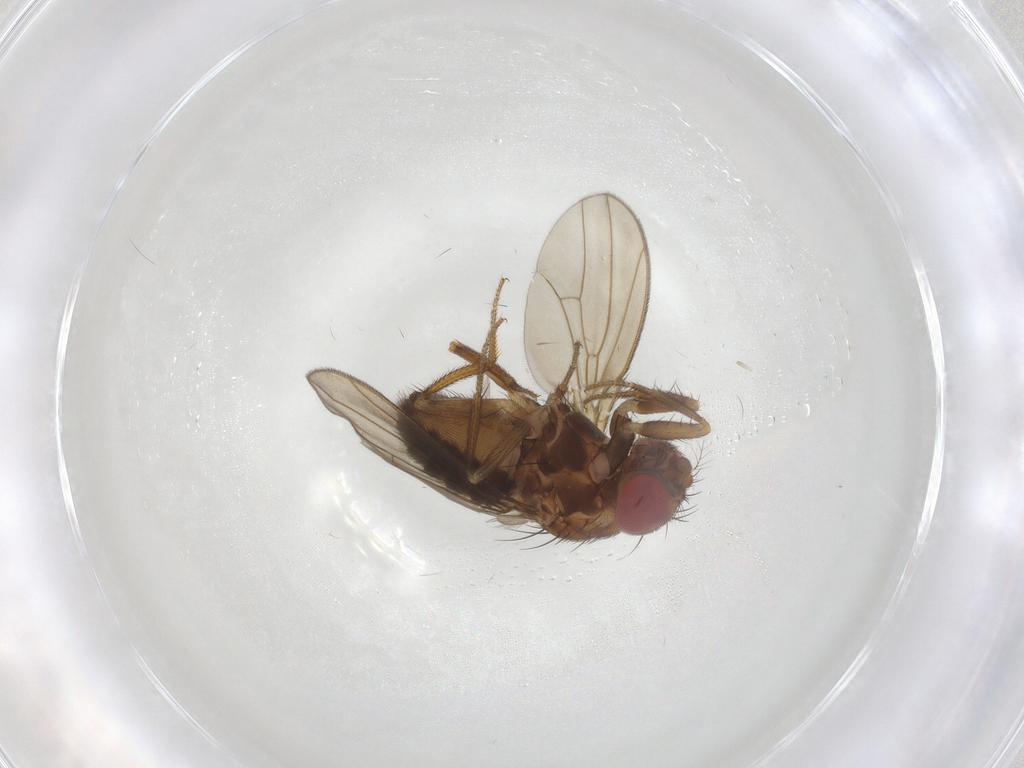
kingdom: Animalia
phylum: Arthropoda
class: Insecta
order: Diptera
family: Drosophilidae
